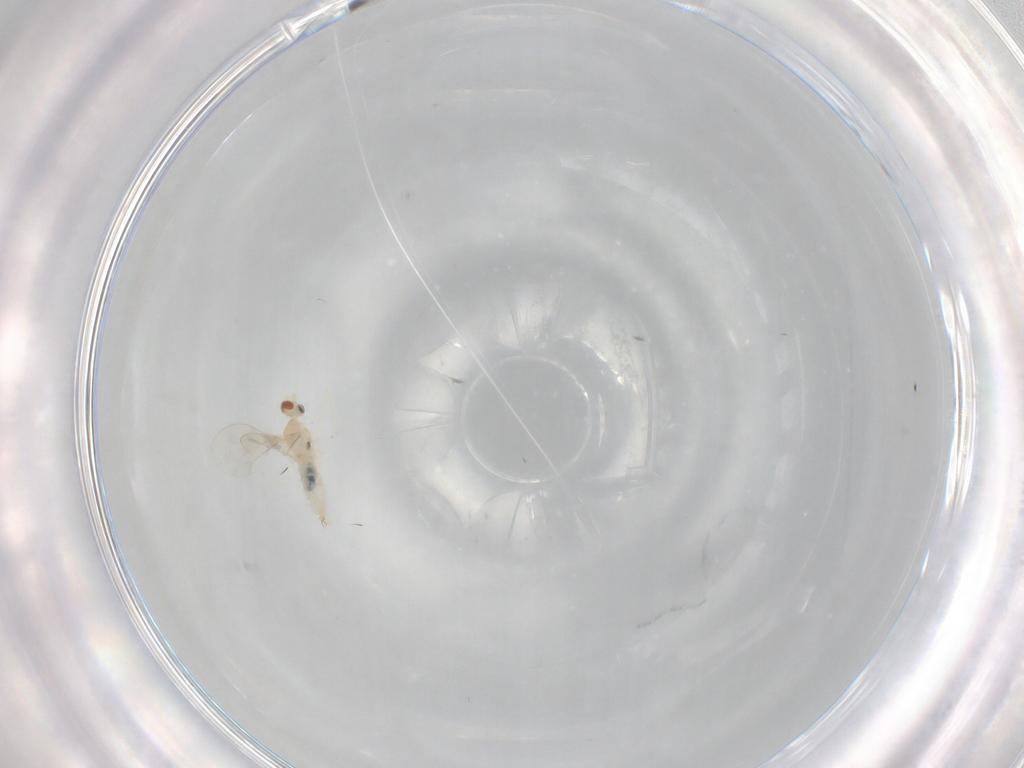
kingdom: Animalia
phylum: Arthropoda
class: Insecta
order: Diptera
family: Cecidomyiidae
